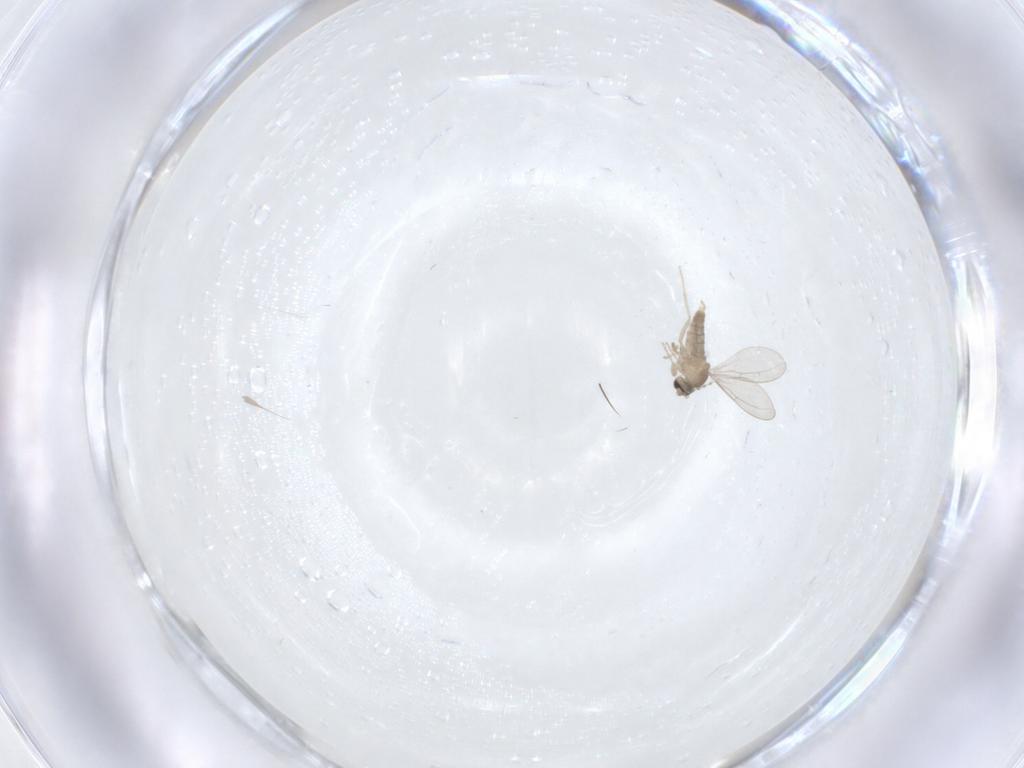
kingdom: Animalia
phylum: Arthropoda
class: Insecta
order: Diptera
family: Cecidomyiidae
